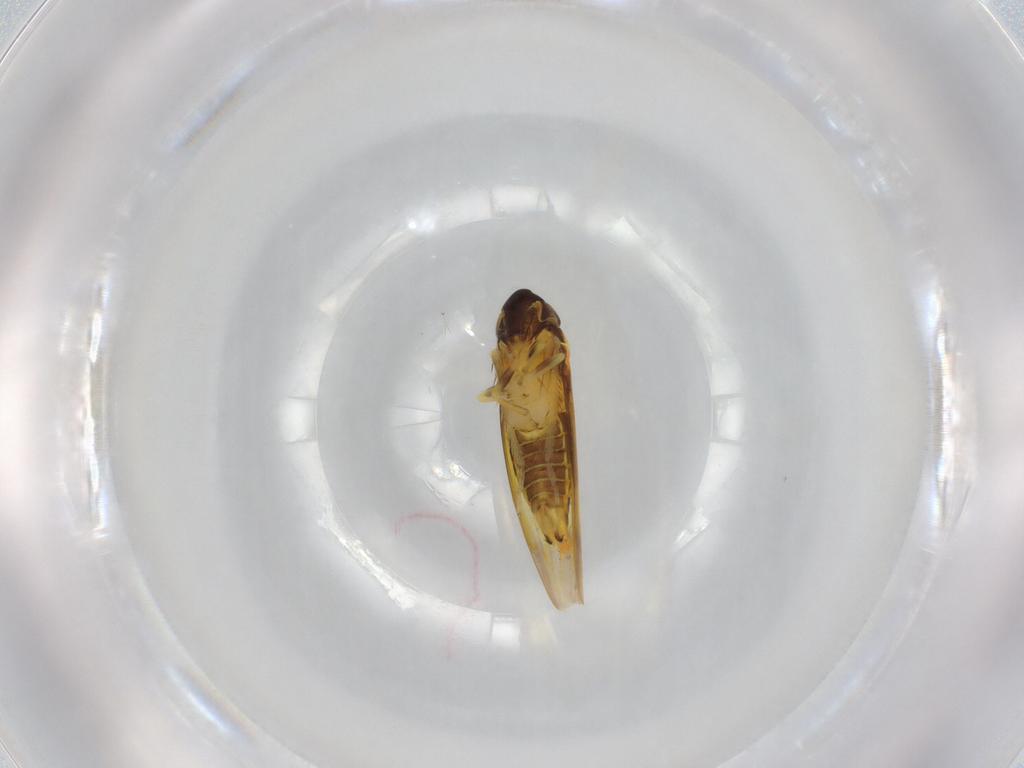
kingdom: Animalia
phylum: Arthropoda
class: Insecta
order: Hemiptera
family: Cicadellidae
